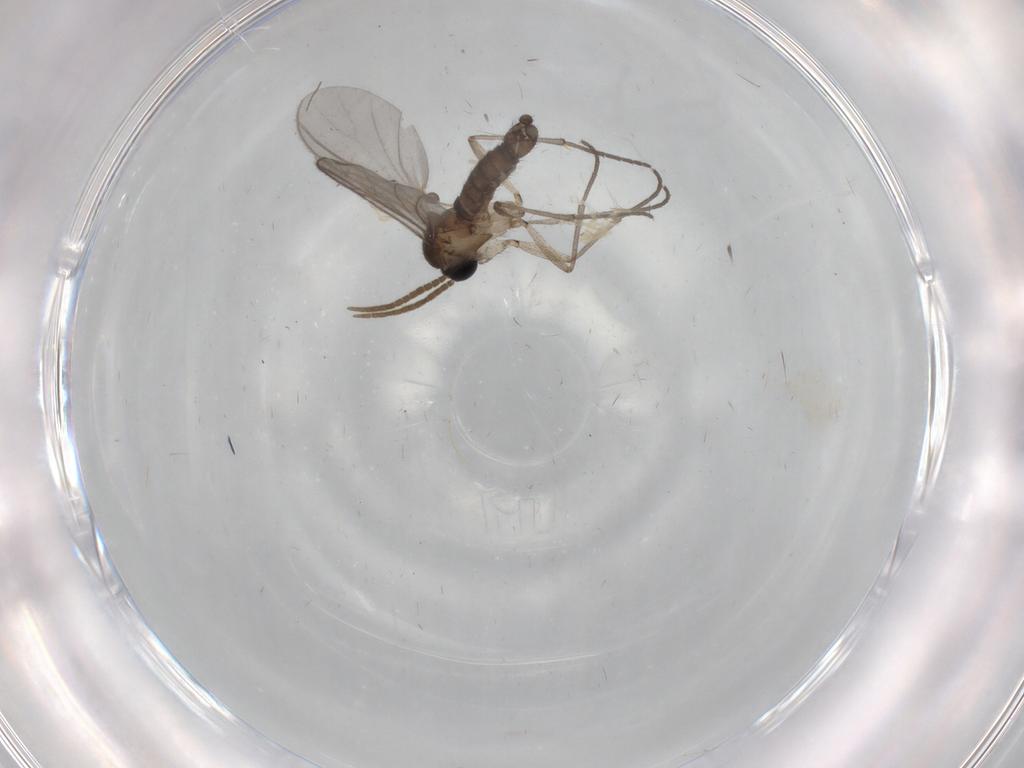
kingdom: Animalia
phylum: Arthropoda
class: Insecta
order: Diptera
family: Cecidomyiidae
